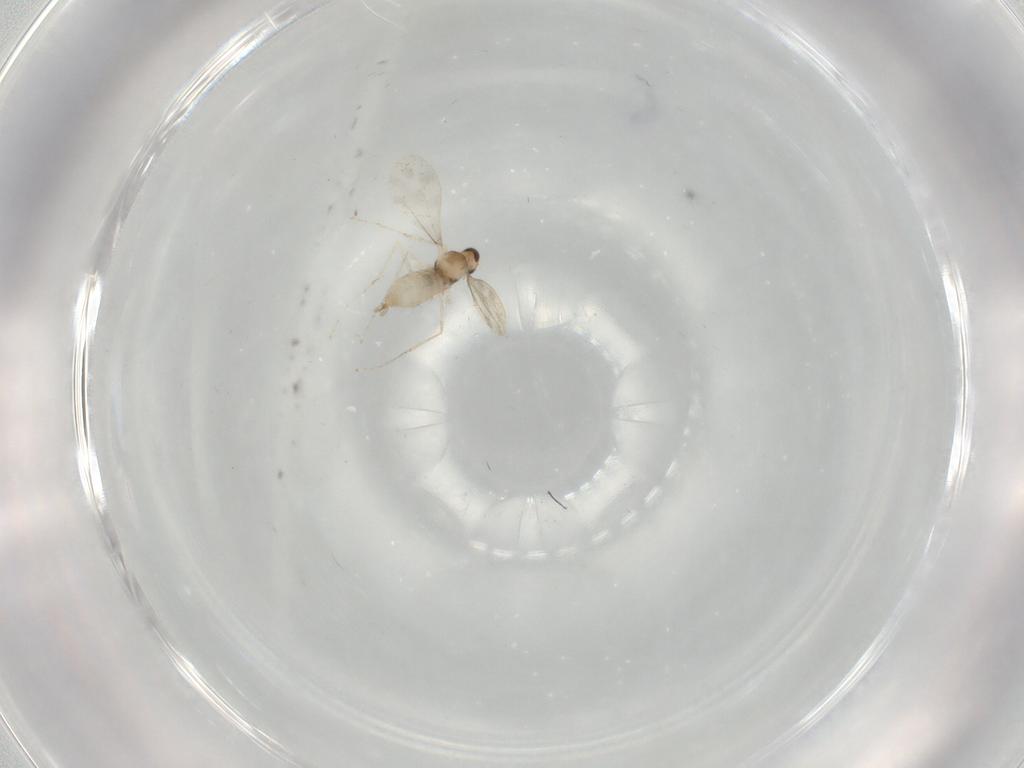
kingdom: Animalia
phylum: Arthropoda
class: Insecta
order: Diptera
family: Cecidomyiidae
